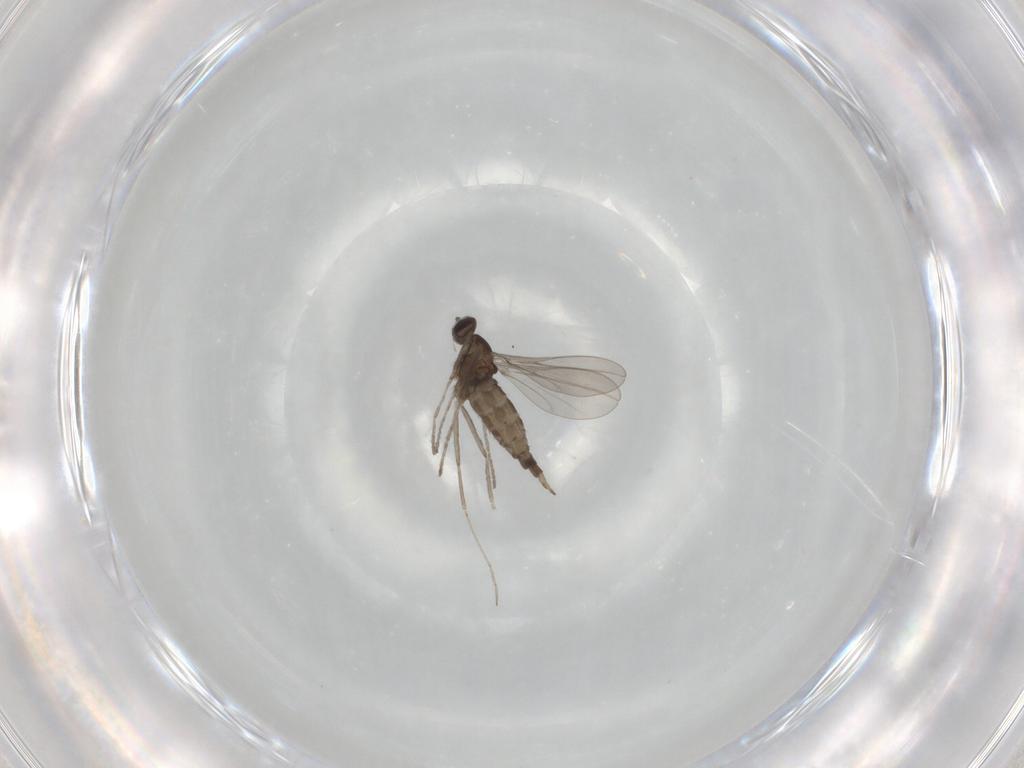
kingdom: Animalia
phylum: Arthropoda
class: Insecta
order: Diptera
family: Cecidomyiidae
